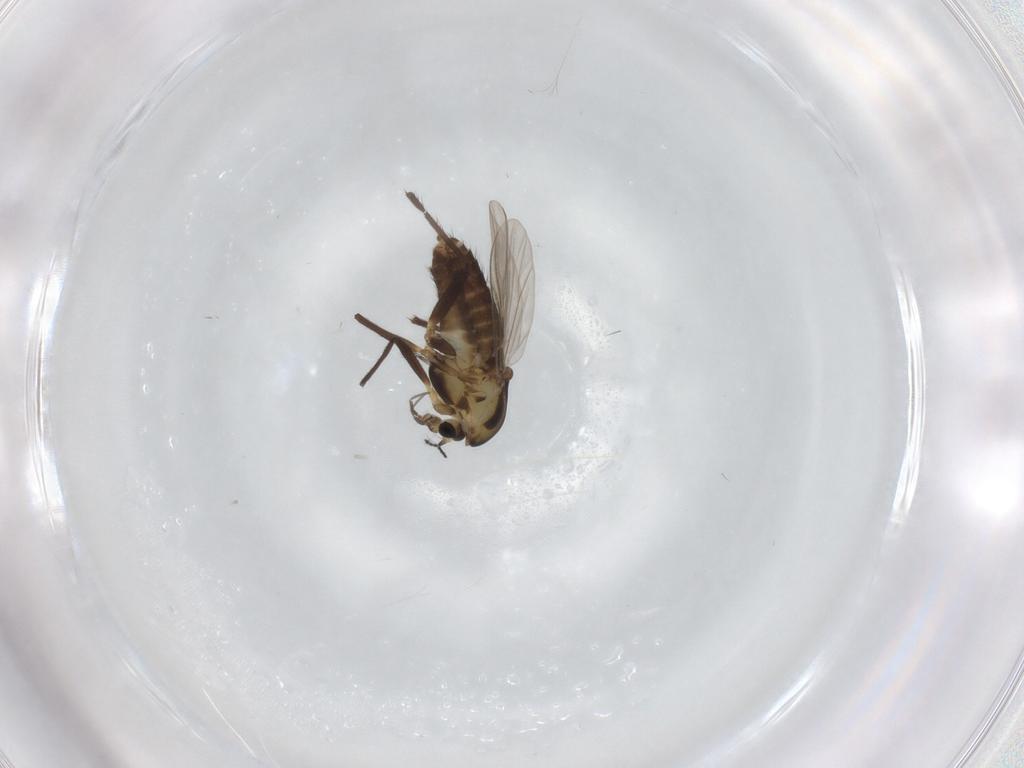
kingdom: Animalia
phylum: Arthropoda
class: Insecta
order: Diptera
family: Chironomidae
